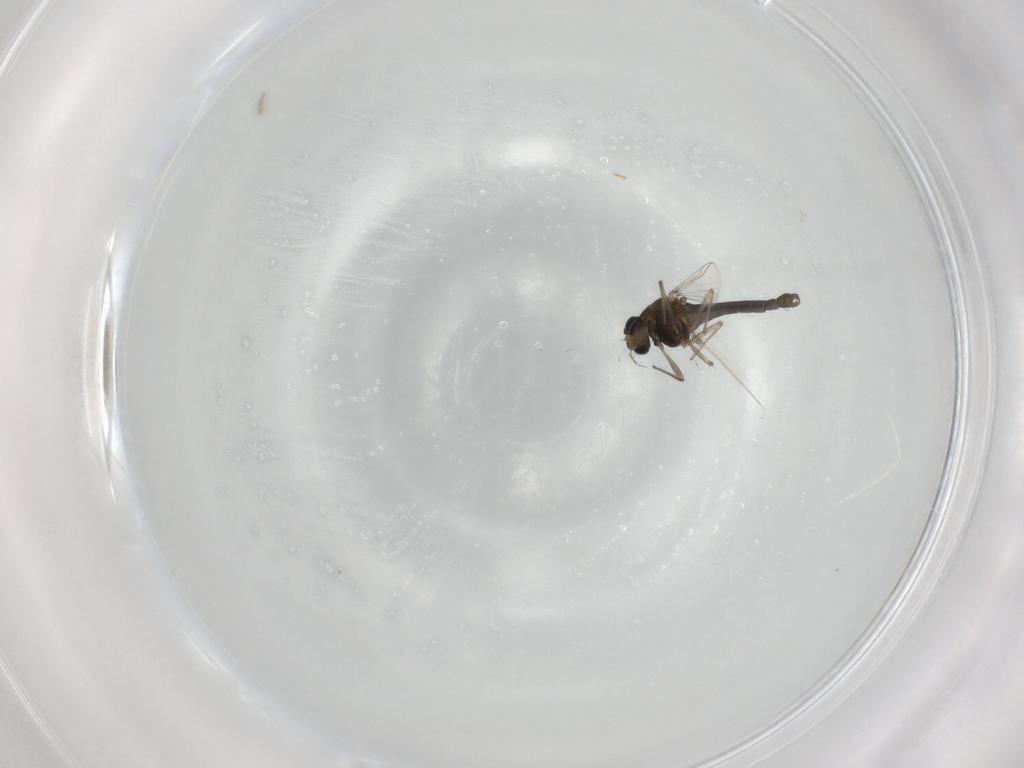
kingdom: Animalia
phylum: Arthropoda
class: Insecta
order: Diptera
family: Chironomidae
